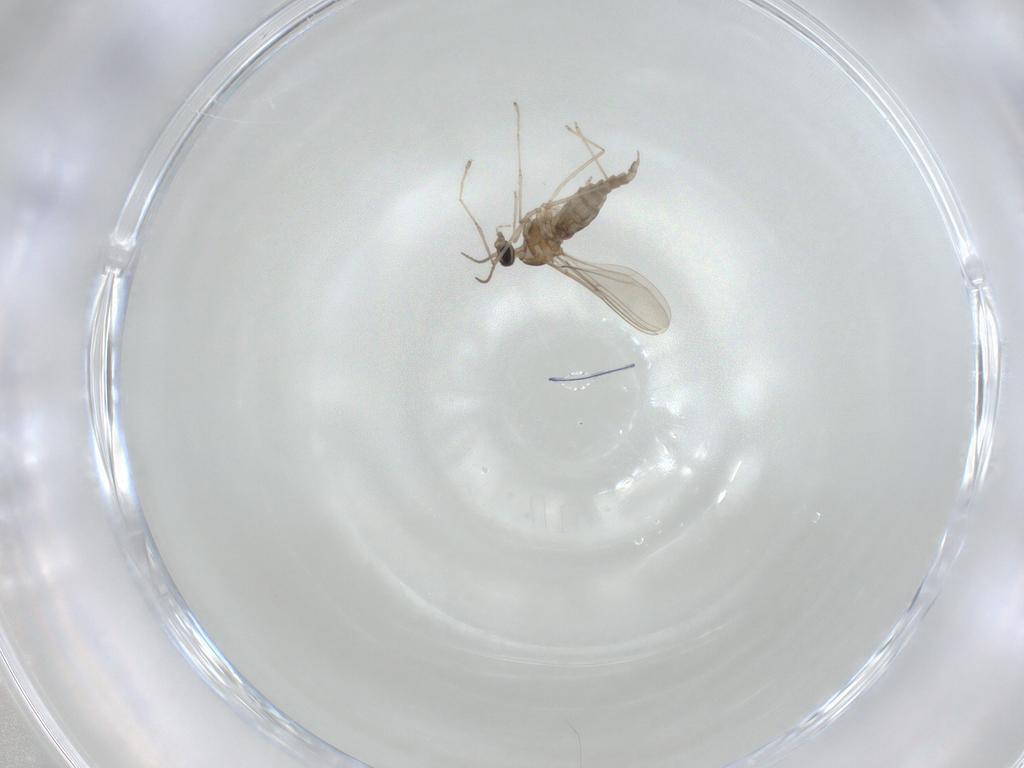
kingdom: Animalia
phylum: Arthropoda
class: Insecta
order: Diptera
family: Cecidomyiidae
